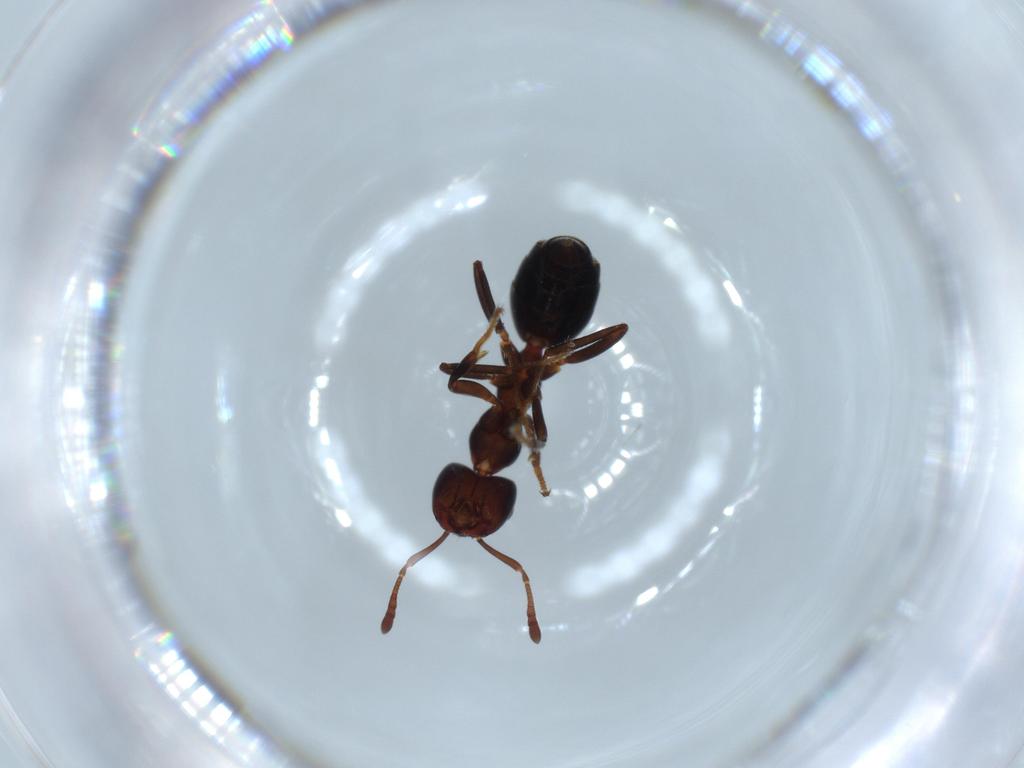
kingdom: Animalia
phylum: Arthropoda
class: Insecta
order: Hymenoptera
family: Formicidae
